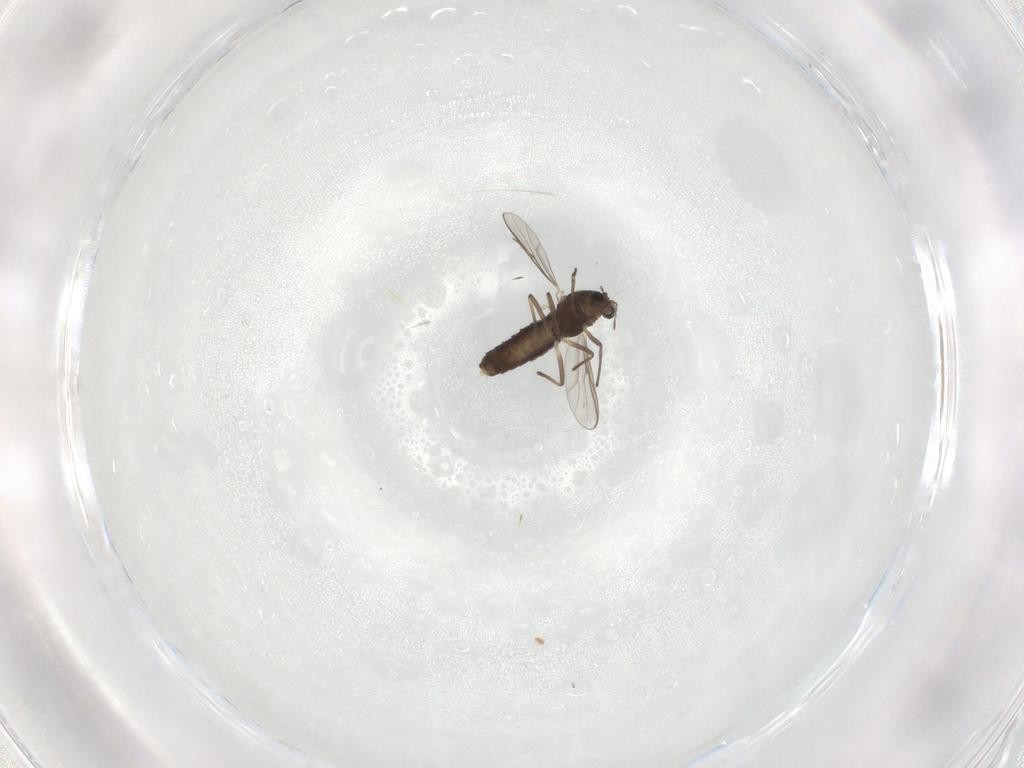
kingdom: Animalia
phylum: Arthropoda
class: Insecta
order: Diptera
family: Chironomidae
